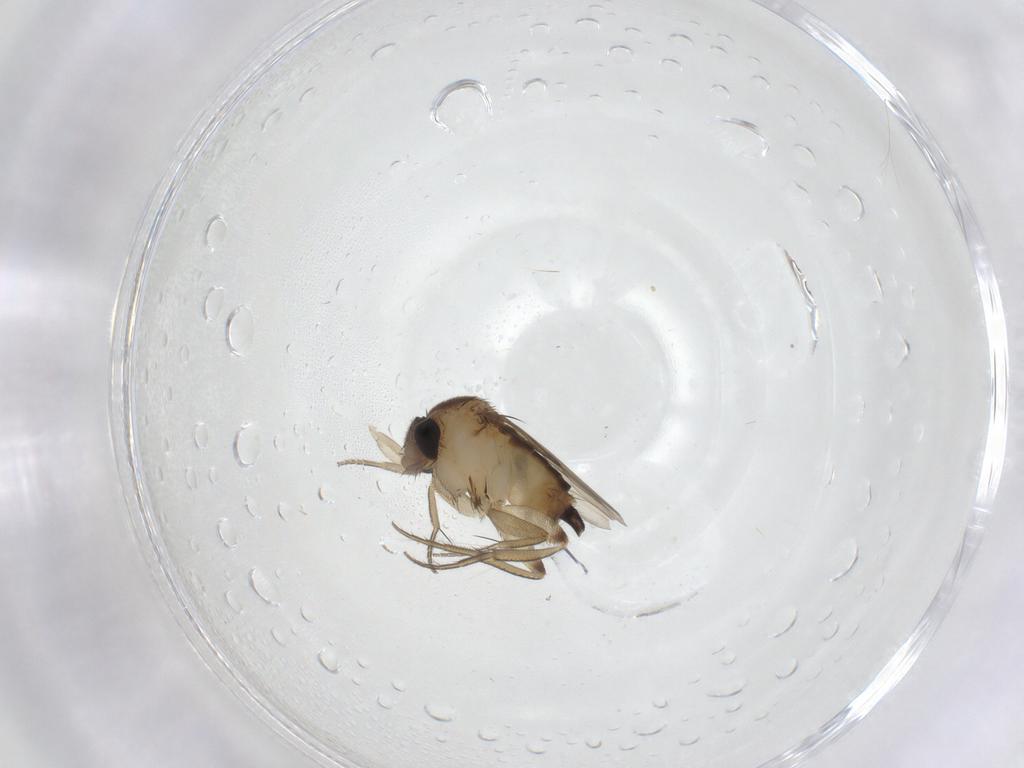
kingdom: Animalia
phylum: Arthropoda
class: Insecta
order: Diptera
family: Phoridae
